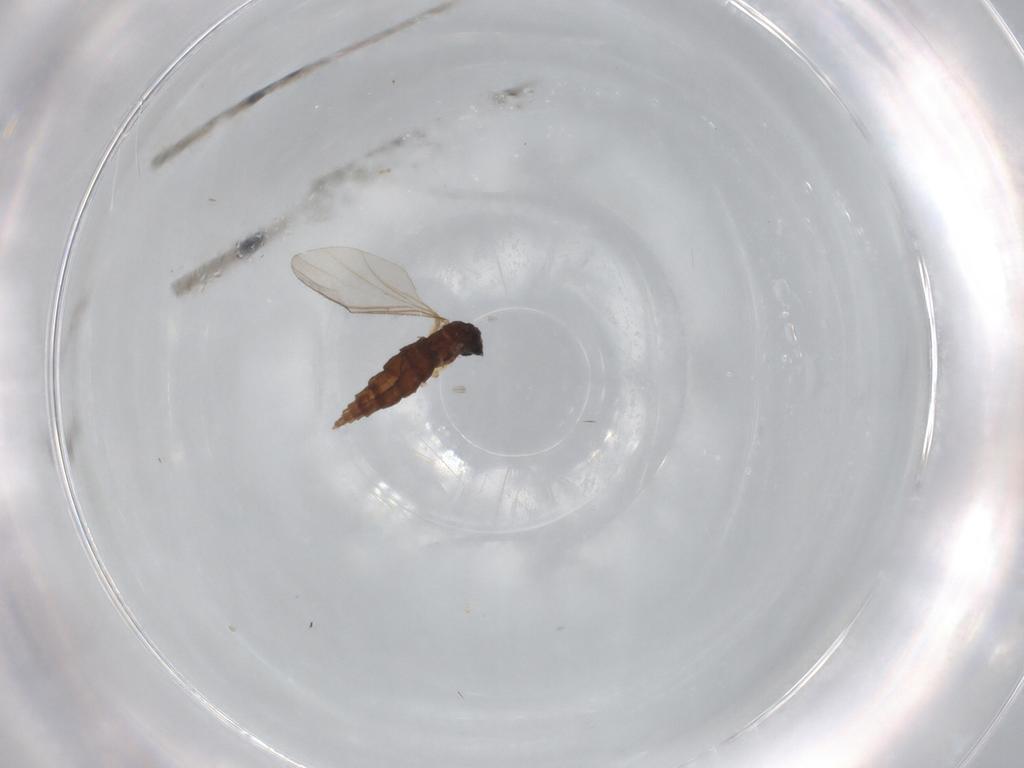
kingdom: Animalia
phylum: Arthropoda
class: Insecta
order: Diptera
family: Sciaridae
